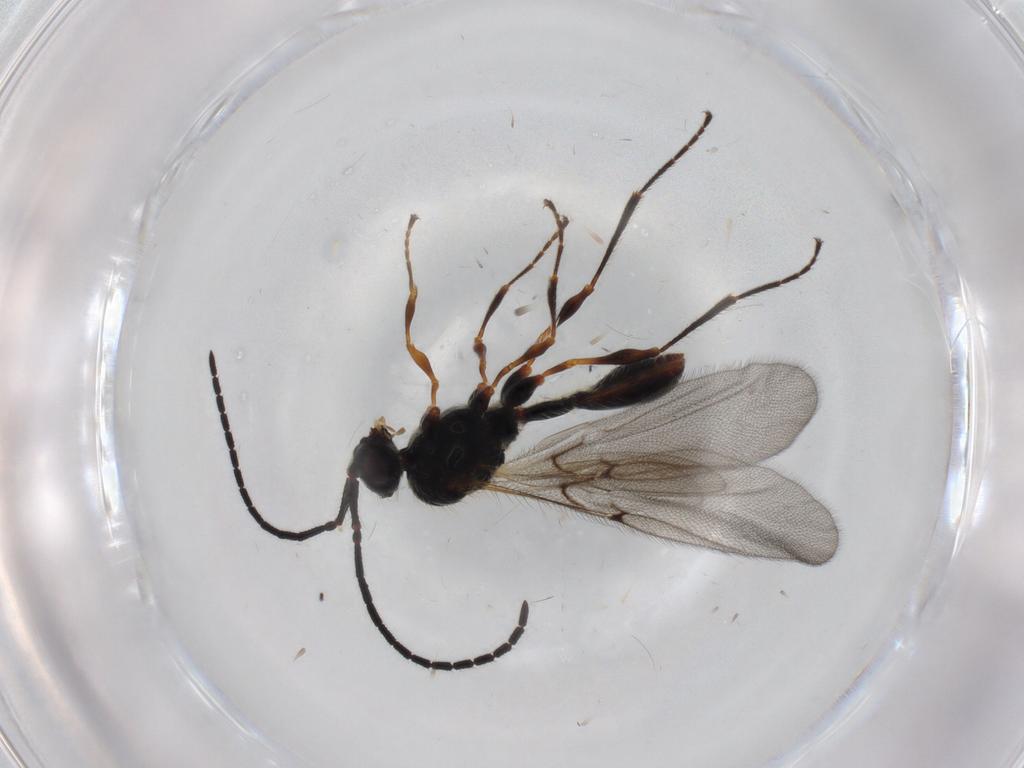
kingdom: Animalia
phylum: Arthropoda
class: Insecta
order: Hymenoptera
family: Diapriidae
